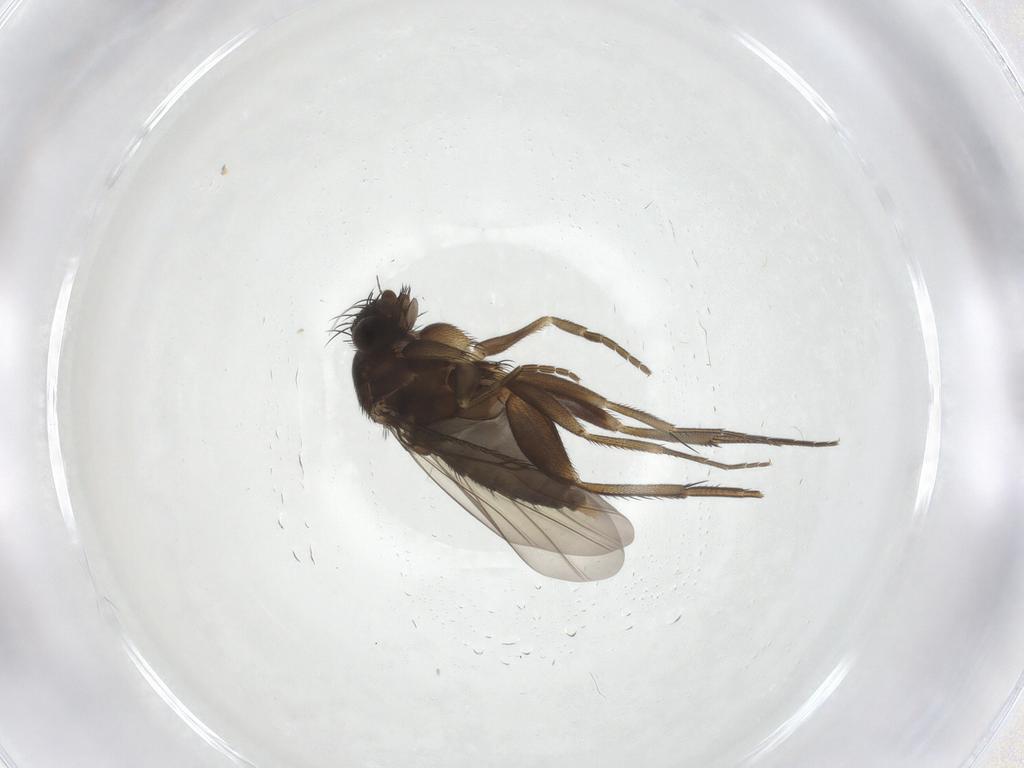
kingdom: Animalia
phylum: Arthropoda
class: Insecta
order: Diptera
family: Phoridae
